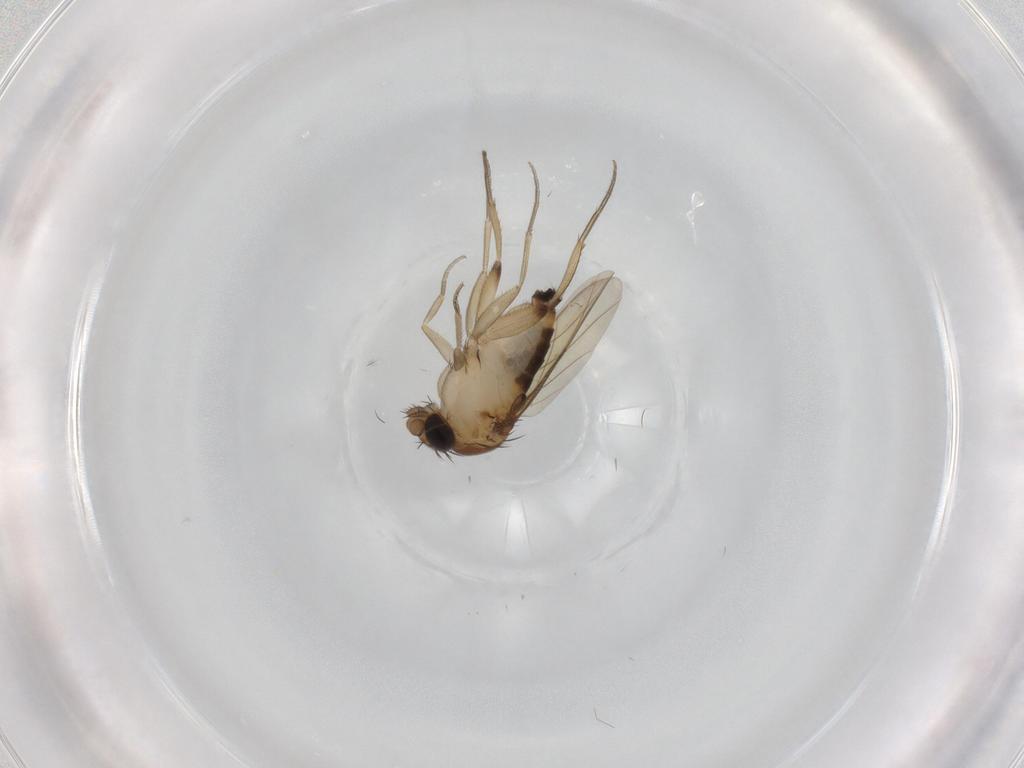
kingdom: Animalia
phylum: Arthropoda
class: Insecta
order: Diptera
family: Phoridae
